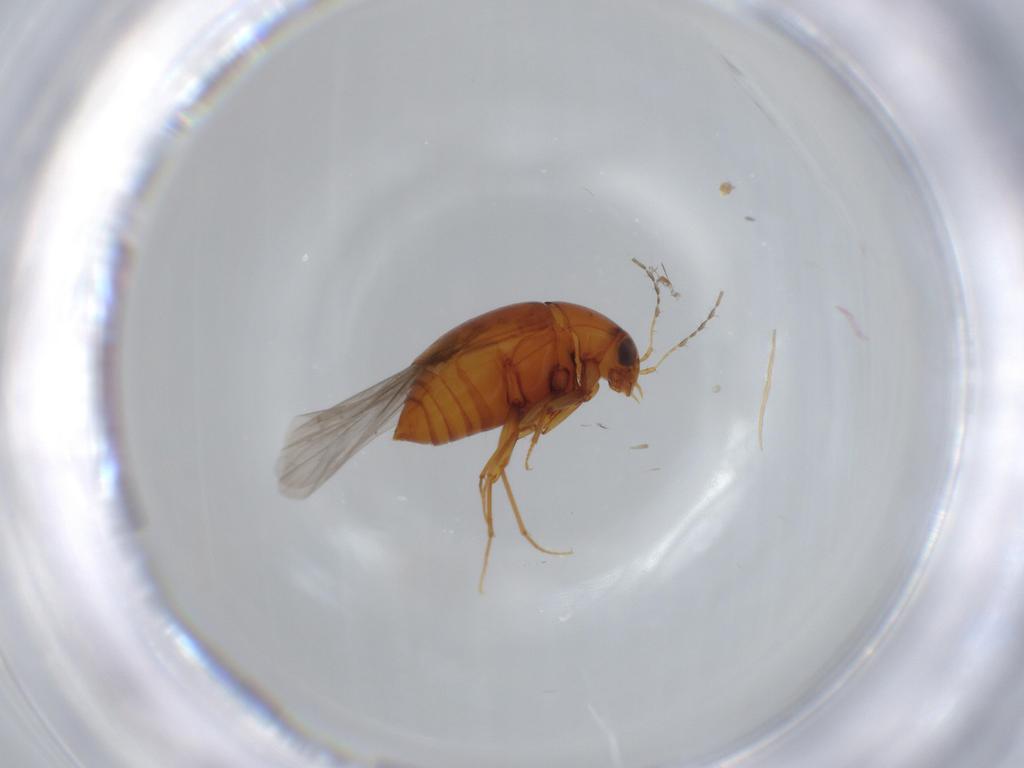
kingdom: Animalia
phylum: Arthropoda
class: Insecta
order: Coleoptera
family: Staphylinidae
